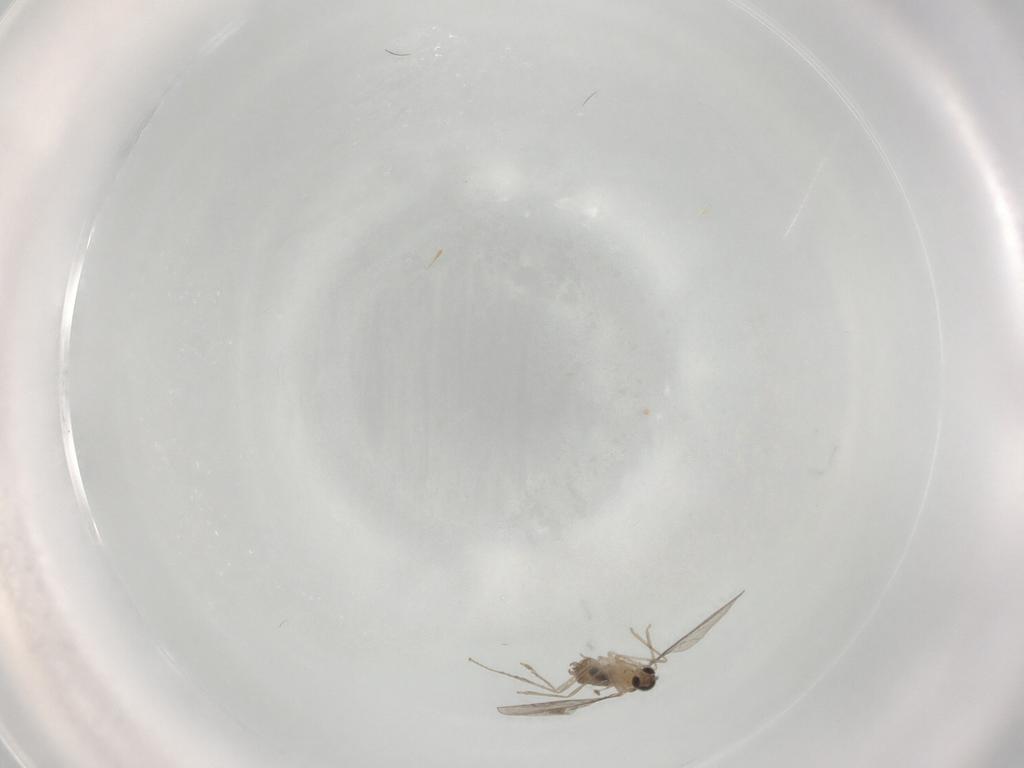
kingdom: Animalia
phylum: Arthropoda
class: Insecta
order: Diptera
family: Cecidomyiidae
